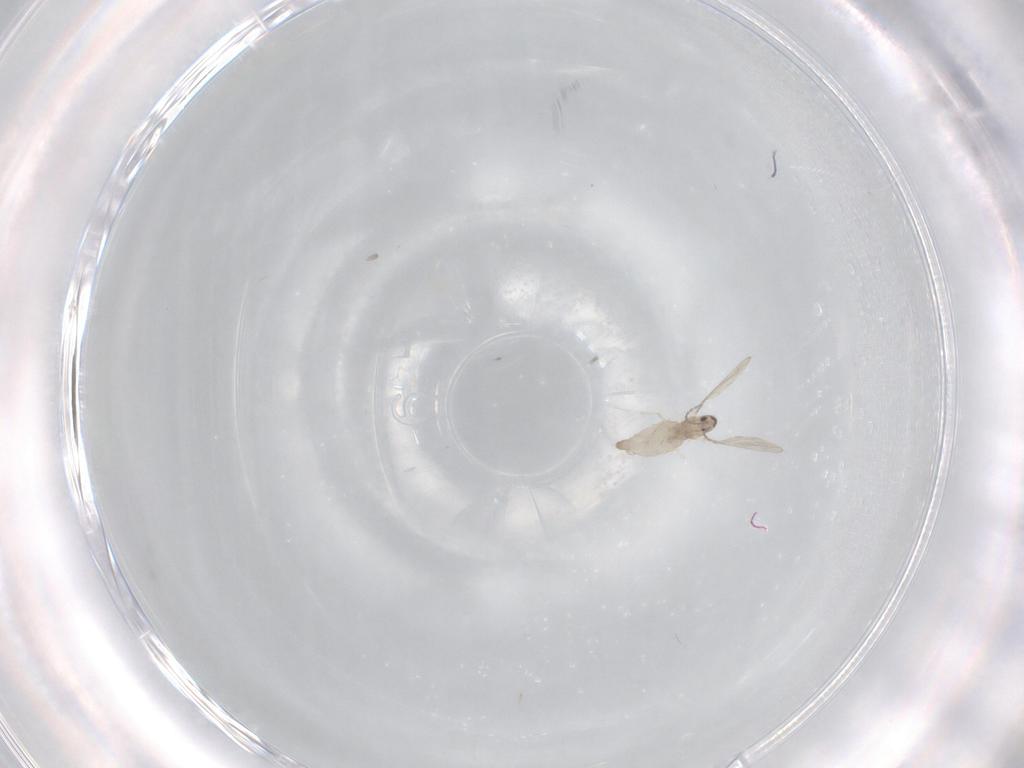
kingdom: Animalia
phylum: Arthropoda
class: Insecta
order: Diptera
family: Cecidomyiidae
